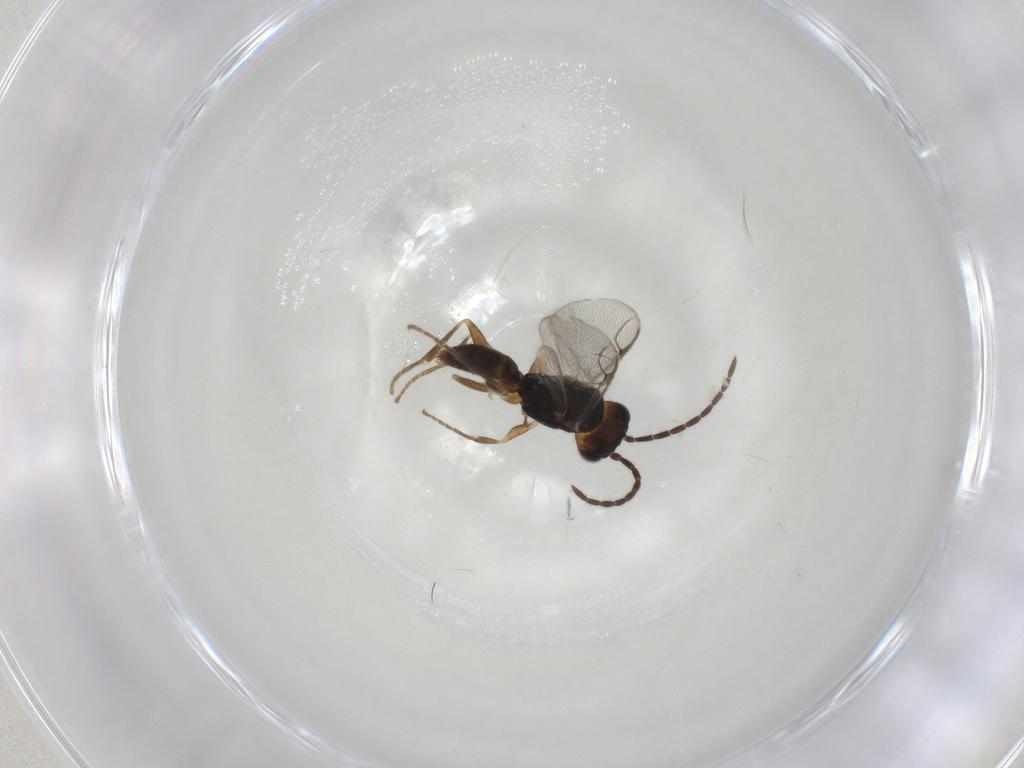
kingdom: Animalia
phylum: Arthropoda
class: Insecta
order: Hymenoptera
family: Dryinidae
